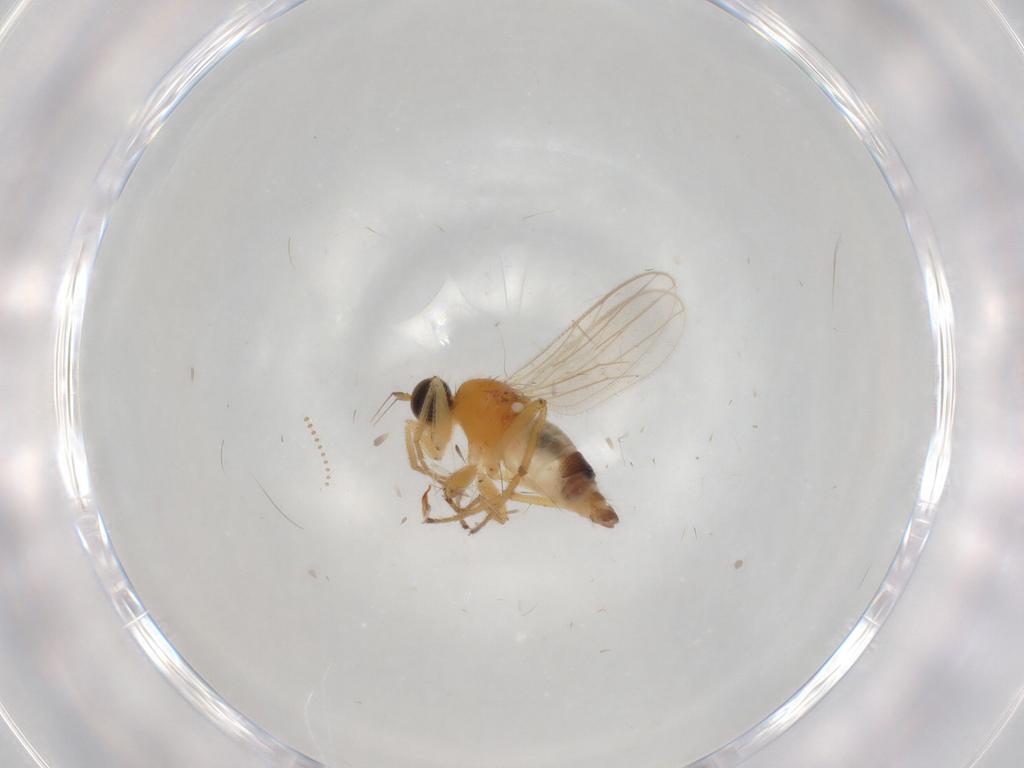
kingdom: Animalia
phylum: Arthropoda
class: Insecta
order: Diptera
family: Hybotidae
